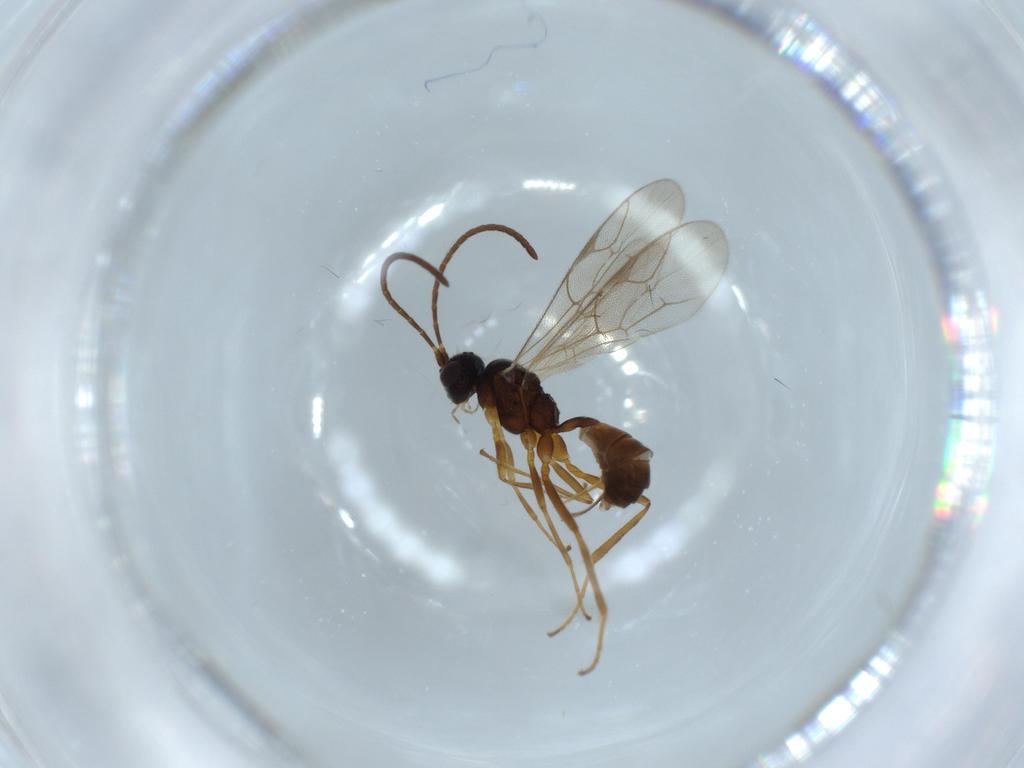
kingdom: Animalia
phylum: Arthropoda
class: Insecta
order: Hymenoptera
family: Ichneumonidae
